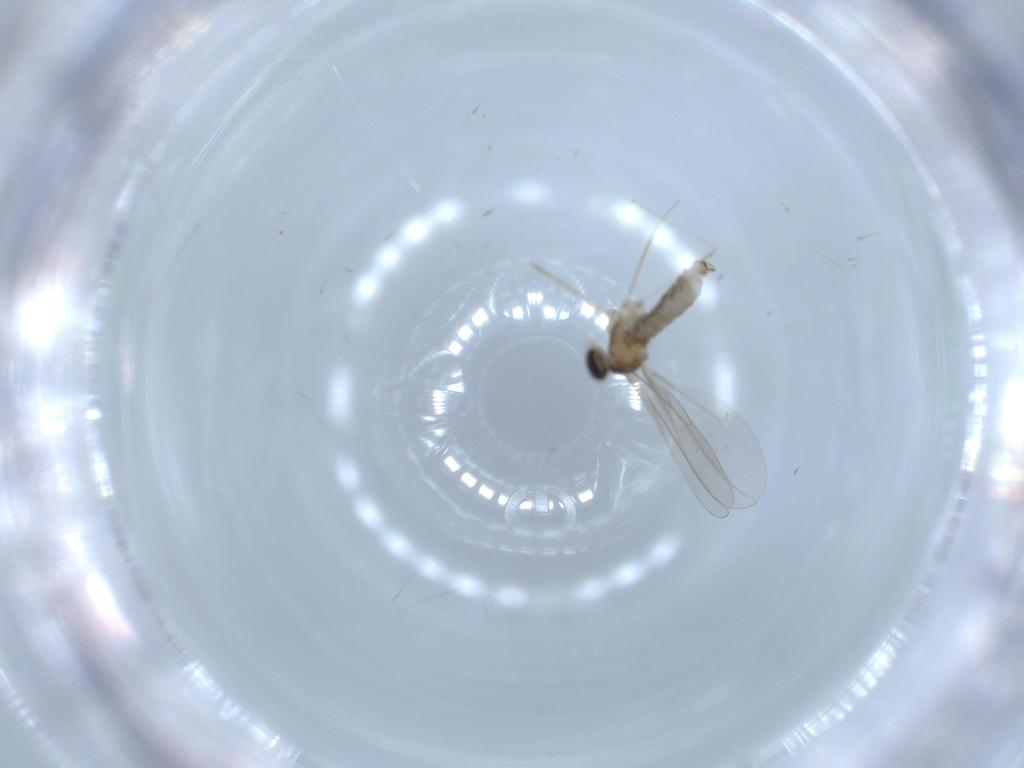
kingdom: Animalia
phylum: Arthropoda
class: Insecta
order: Diptera
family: Cecidomyiidae
